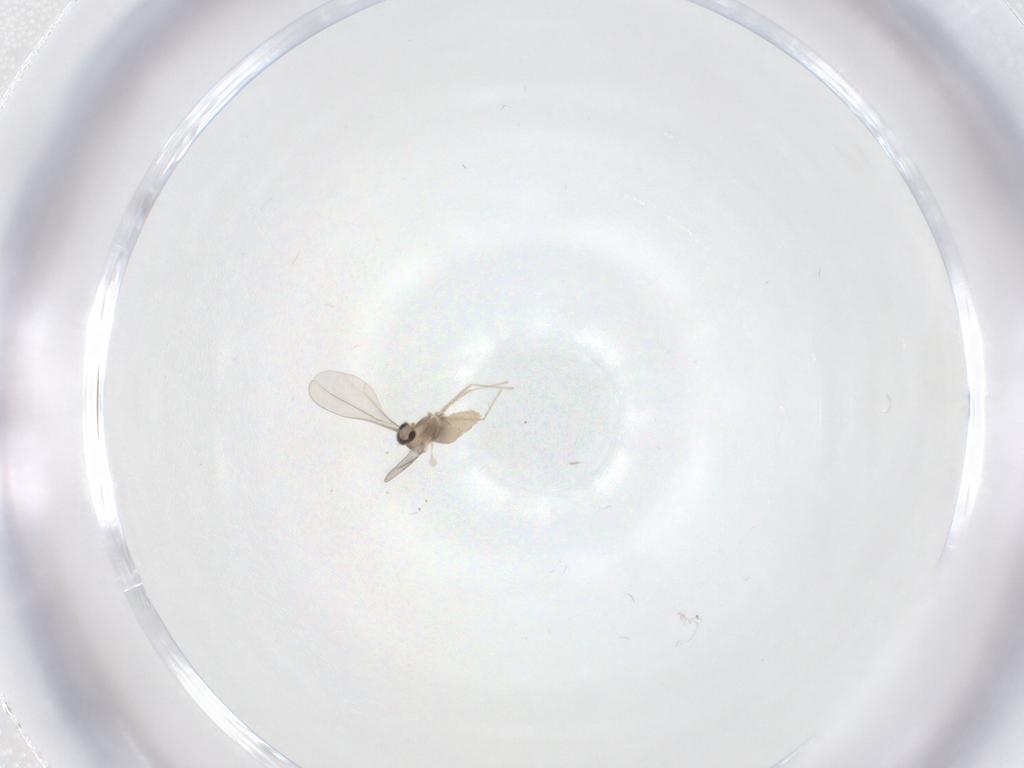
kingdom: Animalia
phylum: Arthropoda
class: Insecta
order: Diptera
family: Cecidomyiidae
